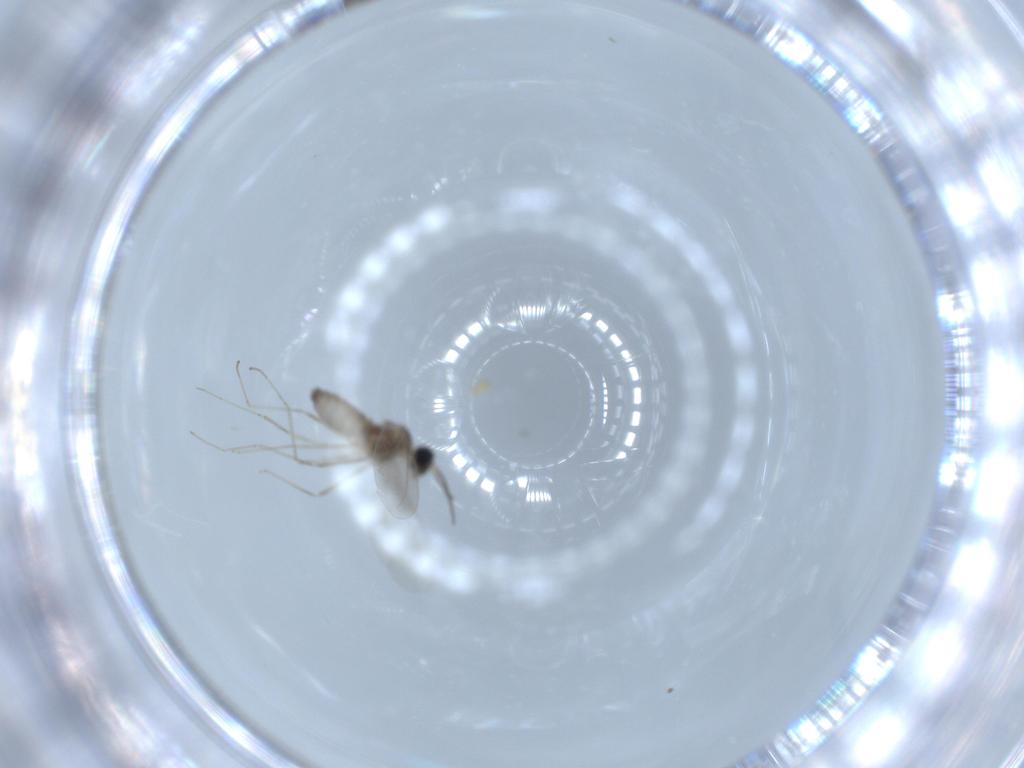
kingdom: Animalia
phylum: Arthropoda
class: Insecta
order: Diptera
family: Cecidomyiidae
